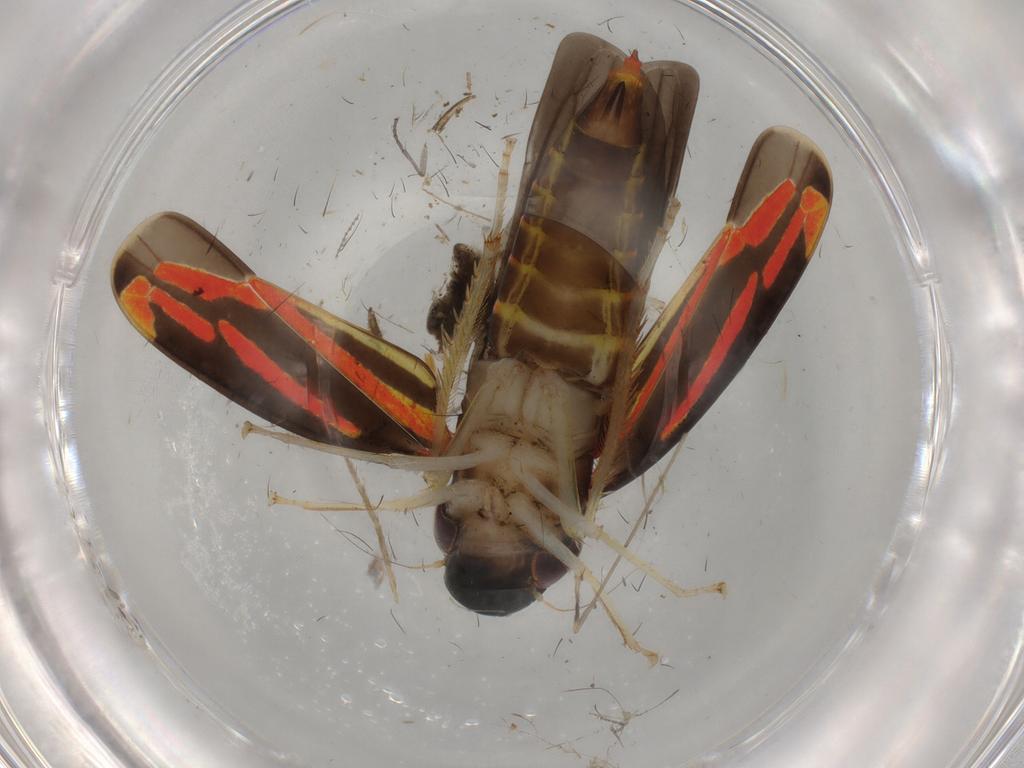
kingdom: Animalia
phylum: Arthropoda
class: Insecta
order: Hemiptera
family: Cicadellidae
